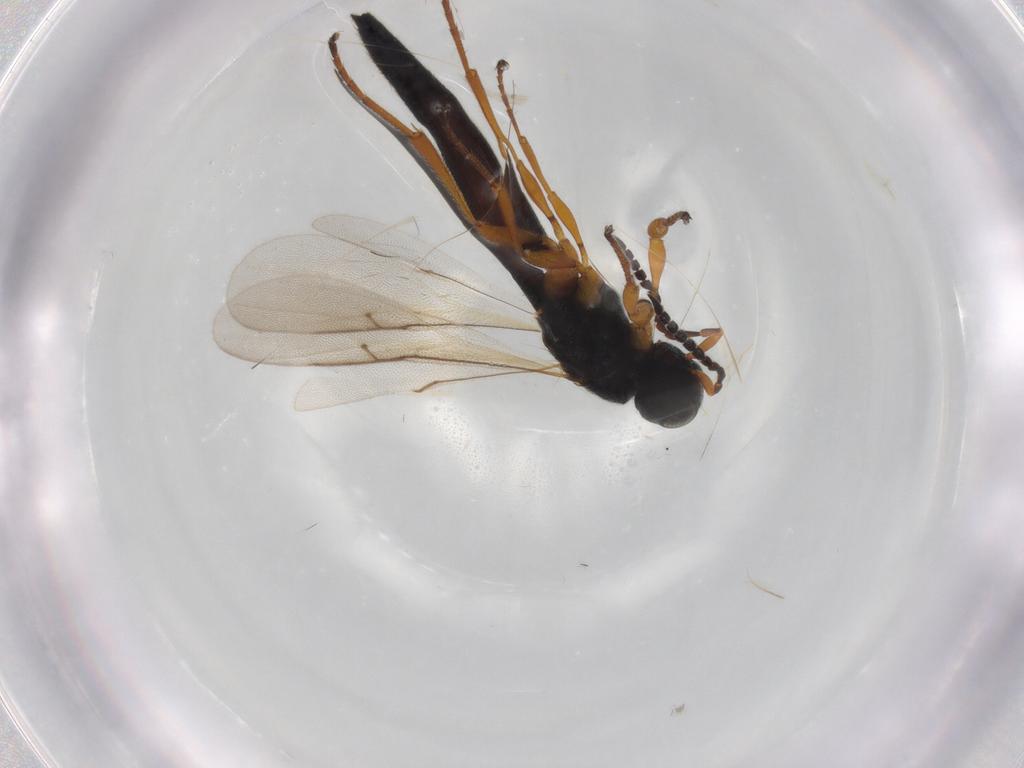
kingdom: Animalia
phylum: Arthropoda
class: Insecta
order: Hymenoptera
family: Scelionidae
